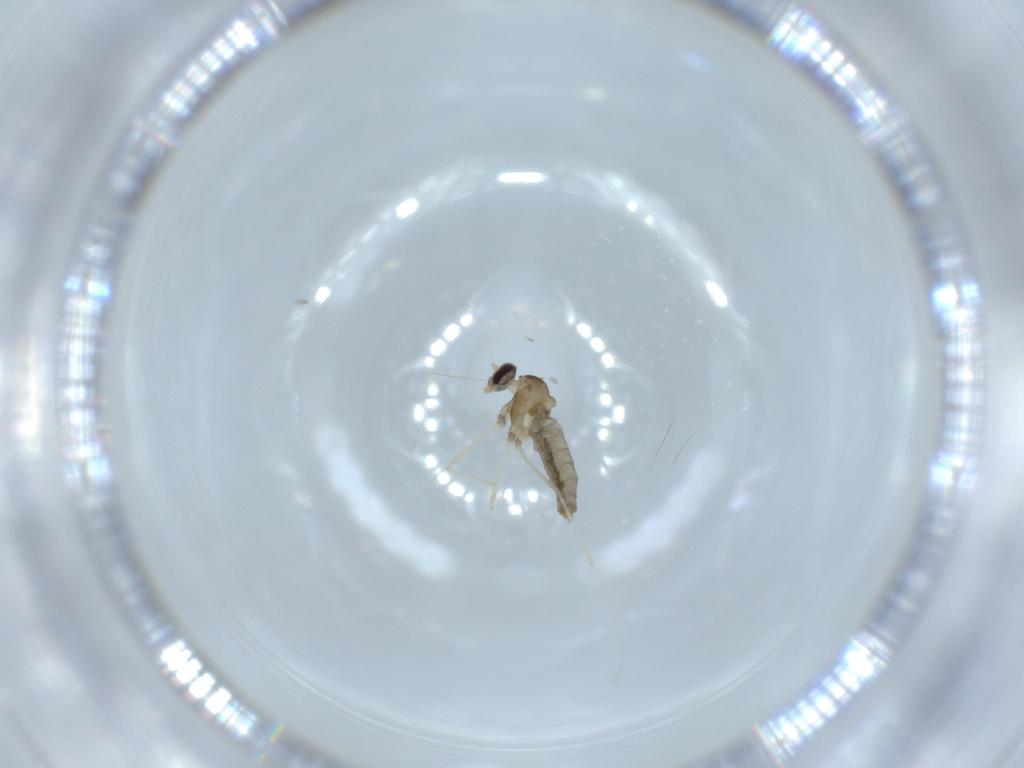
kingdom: Animalia
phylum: Arthropoda
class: Insecta
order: Diptera
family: Cecidomyiidae
